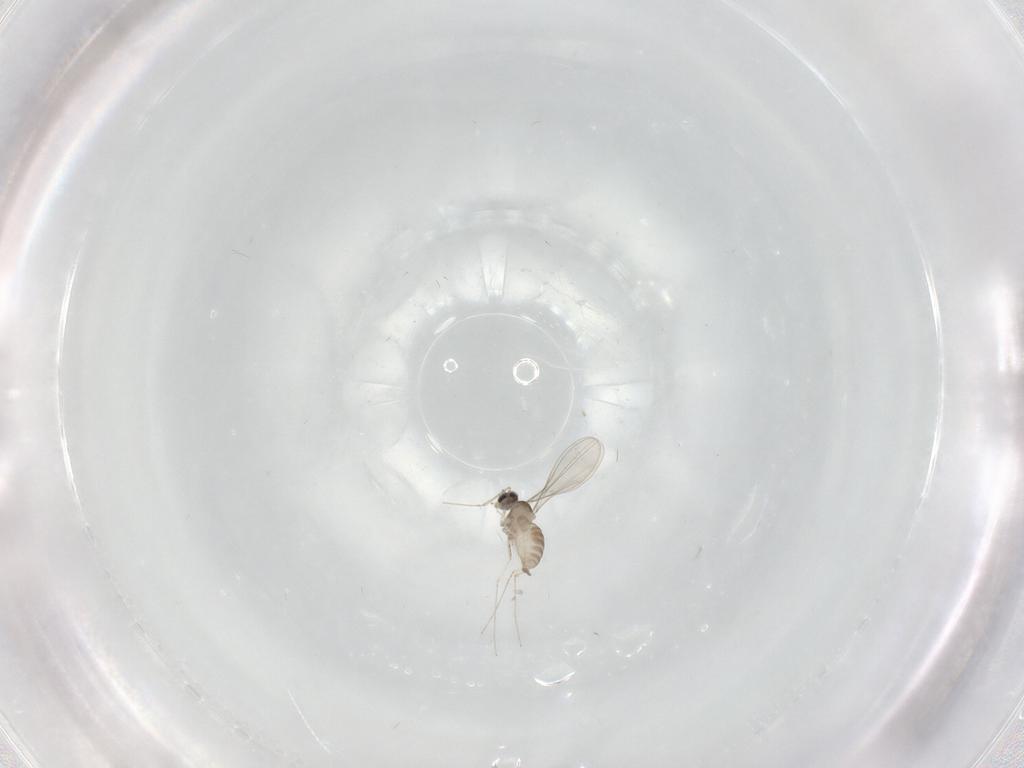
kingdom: Animalia
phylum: Arthropoda
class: Insecta
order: Diptera
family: Cecidomyiidae
